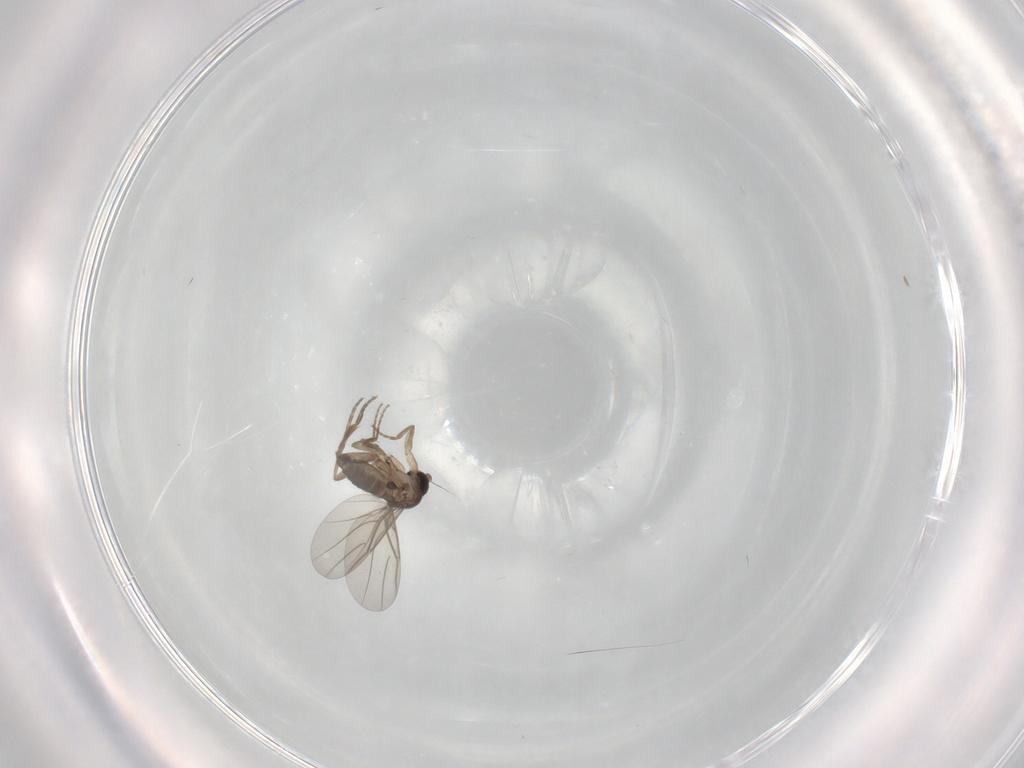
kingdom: Animalia
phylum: Arthropoda
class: Insecta
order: Diptera
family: Phoridae
